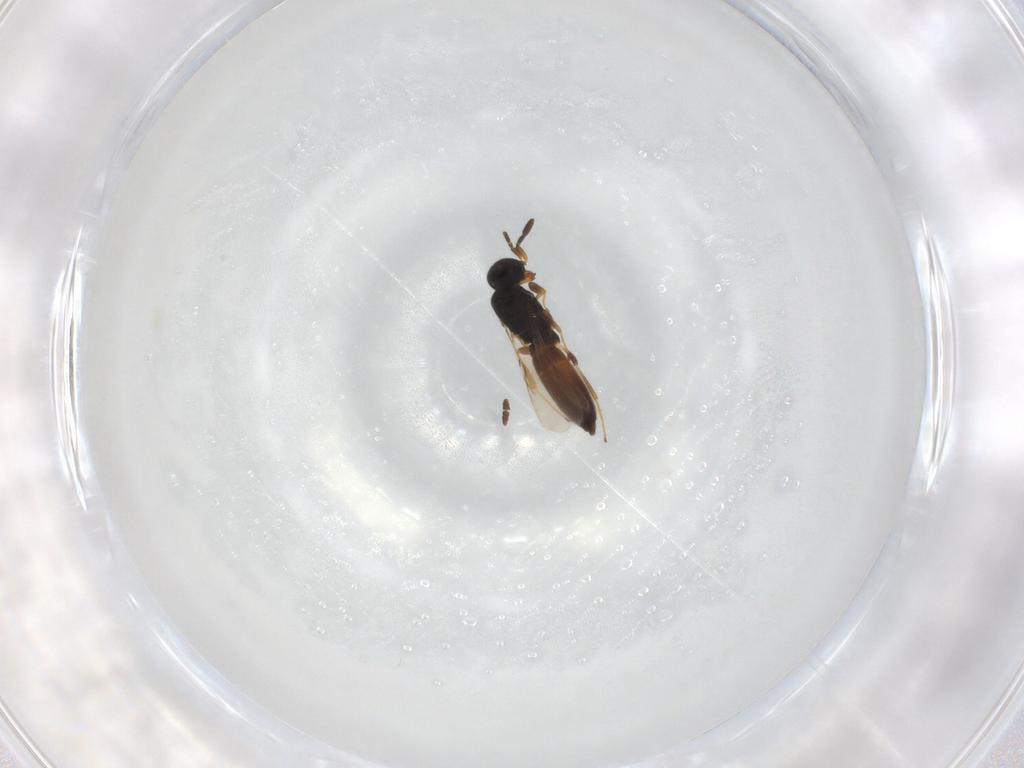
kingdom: Animalia
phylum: Arthropoda
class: Insecta
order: Hymenoptera
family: Scelionidae
